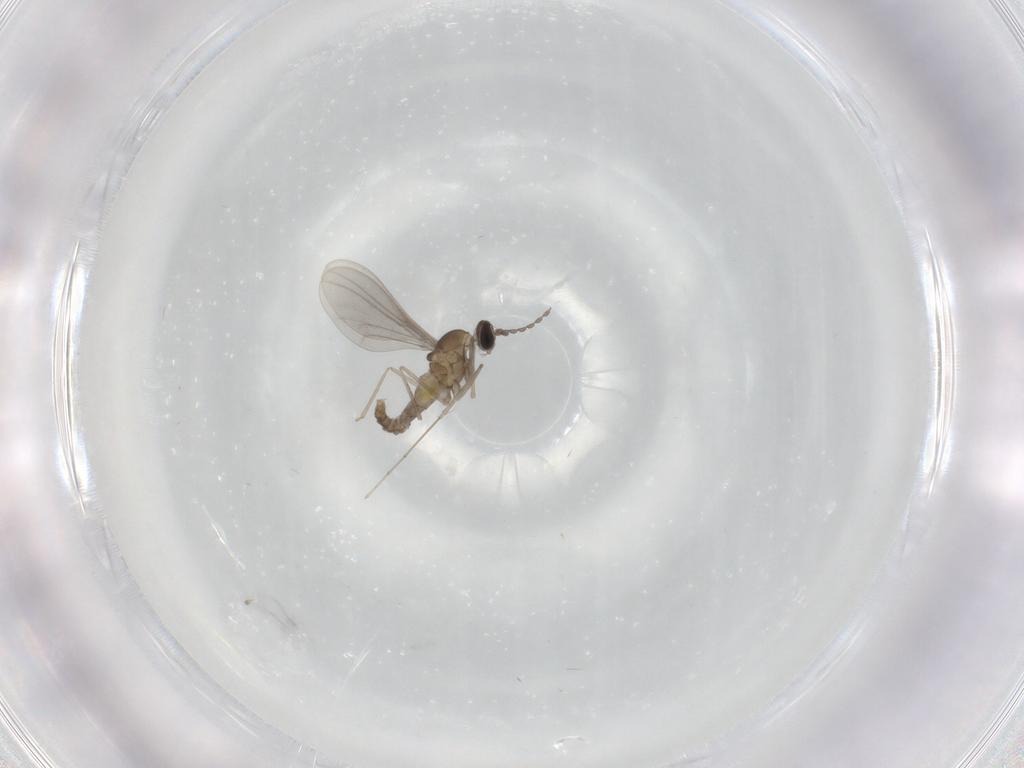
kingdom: Animalia
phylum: Arthropoda
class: Insecta
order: Diptera
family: Cecidomyiidae
